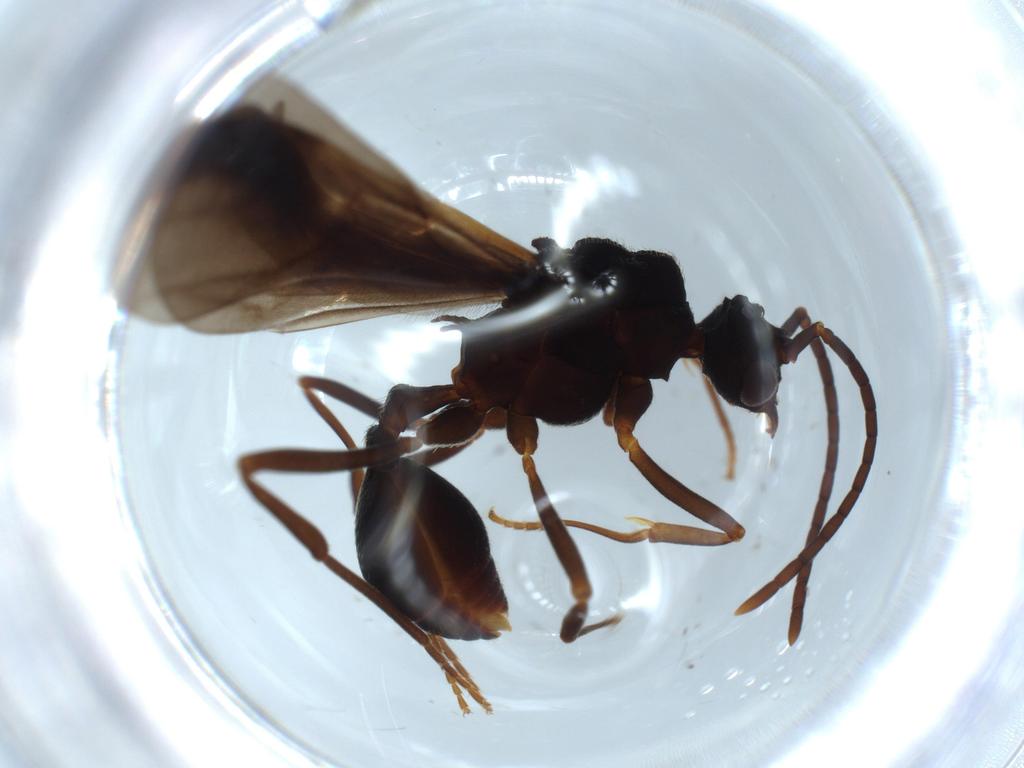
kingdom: Animalia
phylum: Arthropoda
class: Insecta
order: Hymenoptera
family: Formicidae
